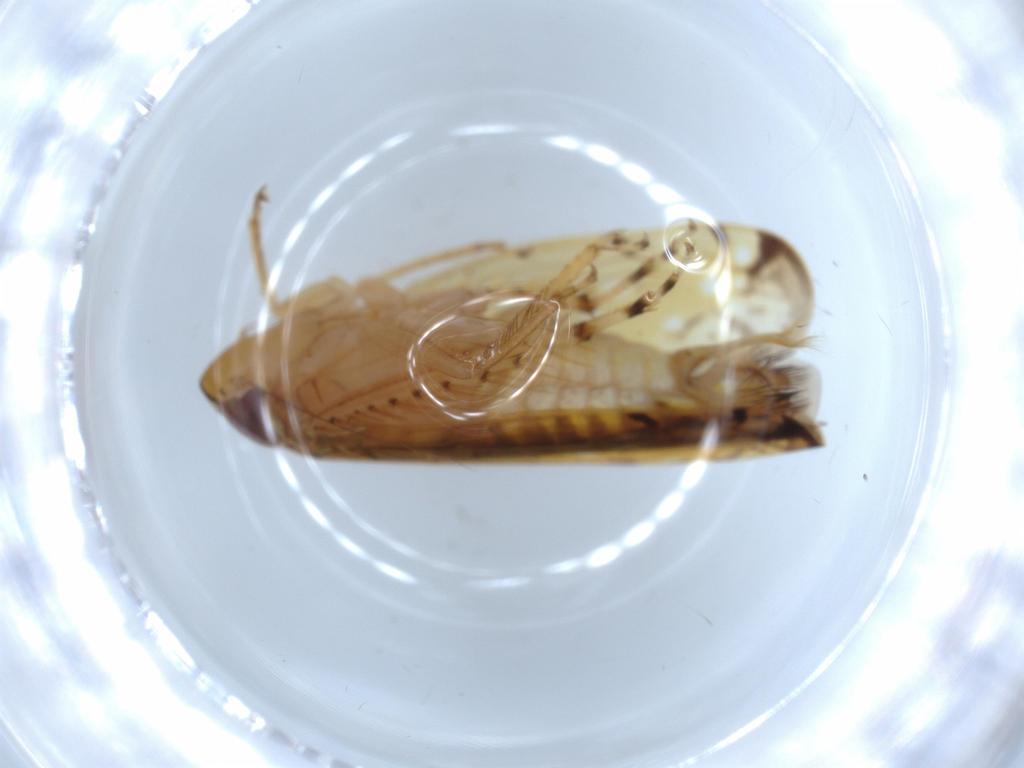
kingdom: Animalia
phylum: Arthropoda
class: Insecta
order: Hemiptera
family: Cicadellidae
